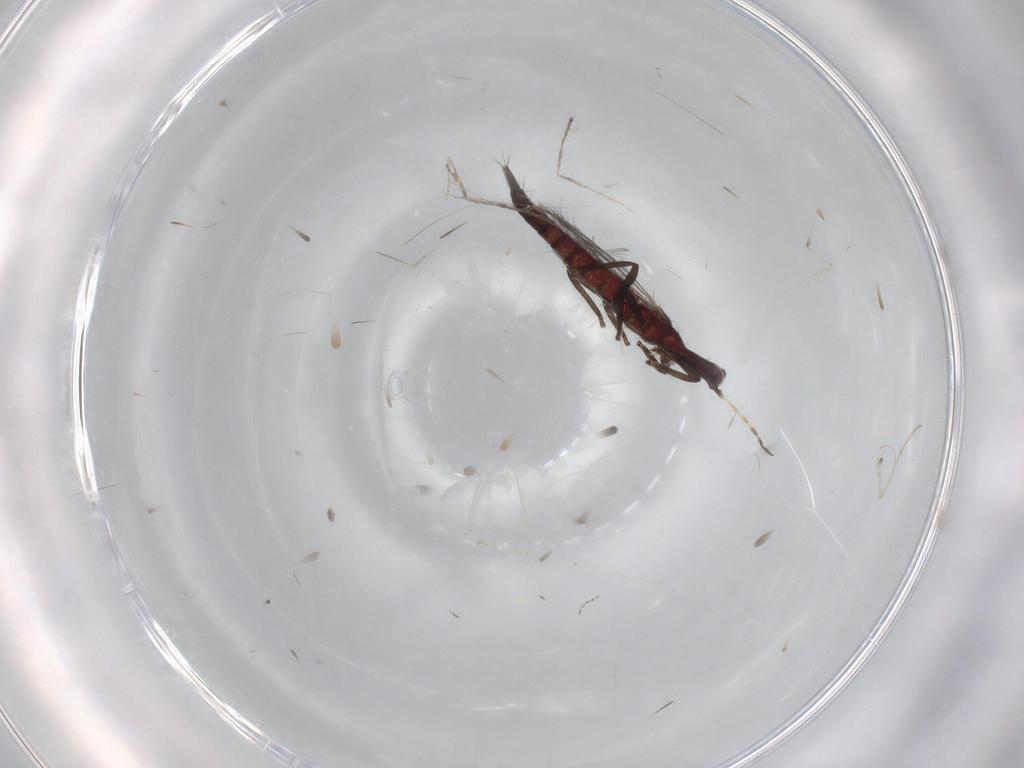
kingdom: Animalia
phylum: Arthropoda
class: Insecta
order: Thysanoptera
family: Phlaeothripidae
